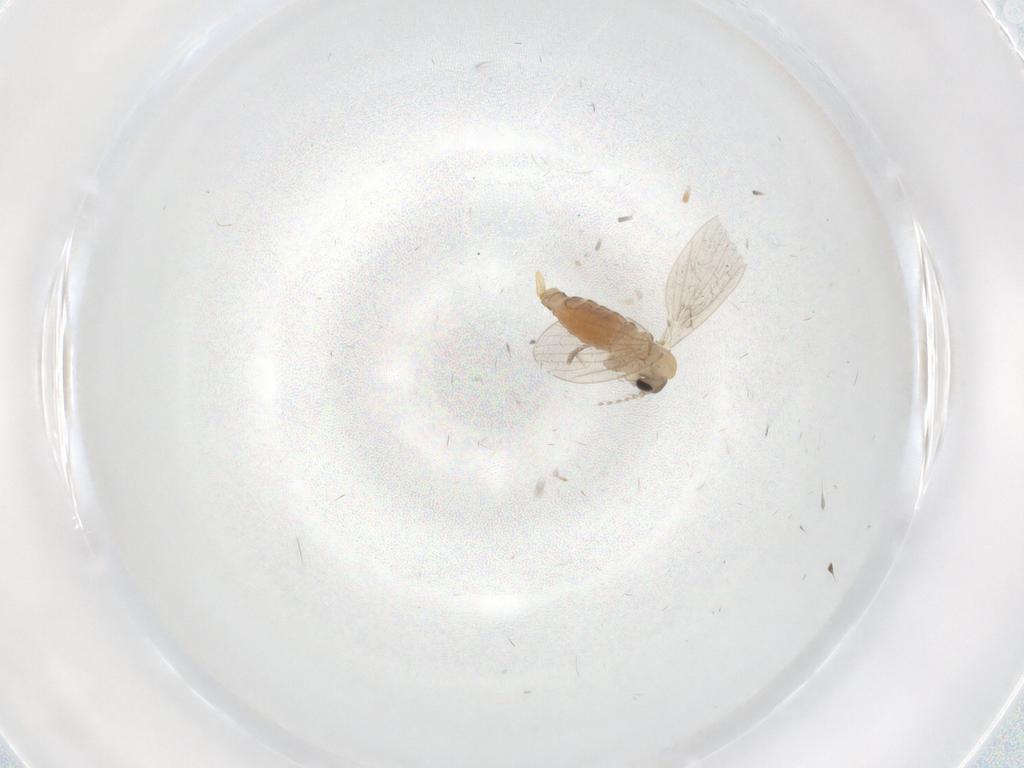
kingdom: Animalia
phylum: Arthropoda
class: Insecta
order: Diptera
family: Psychodidae
